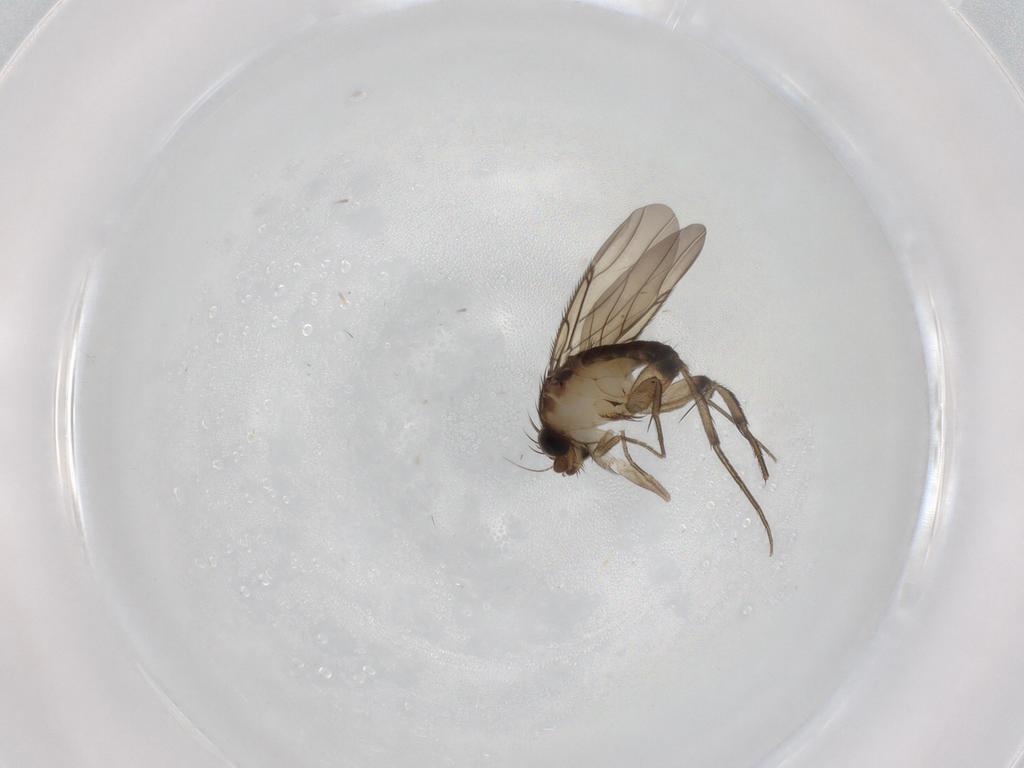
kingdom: Animalia
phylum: Arthropoda
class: Insecta
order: Diptera
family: Phoridae
